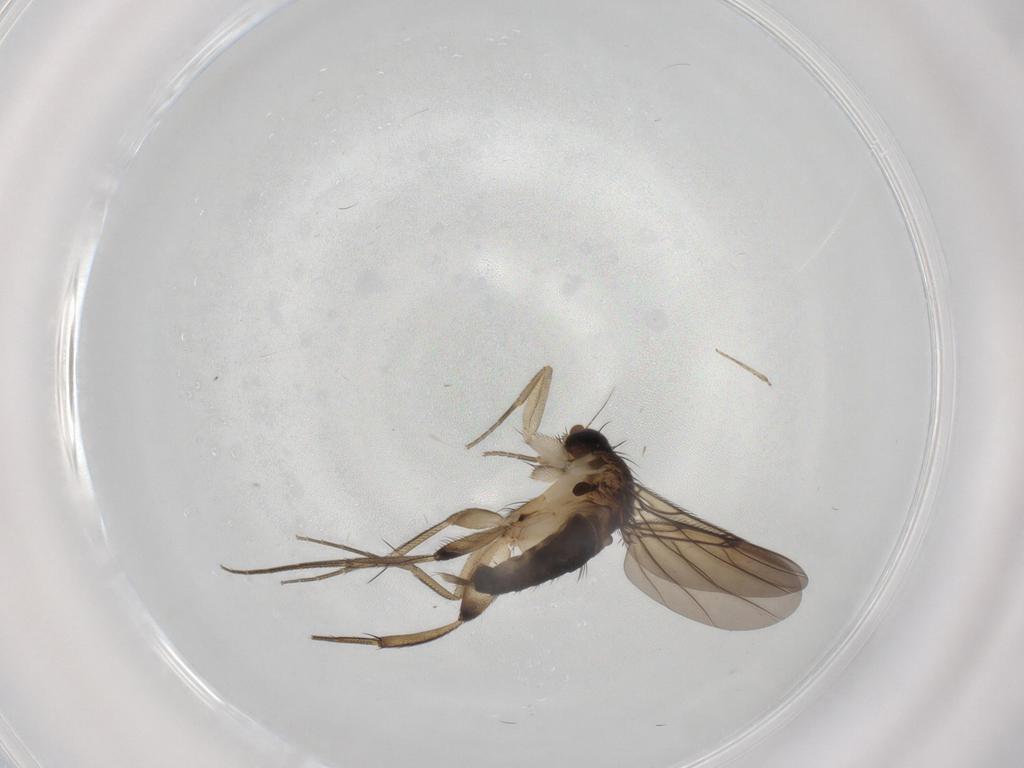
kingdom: Animalia
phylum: Arthropoda
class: Insecta
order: Diptera
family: Phoridae
